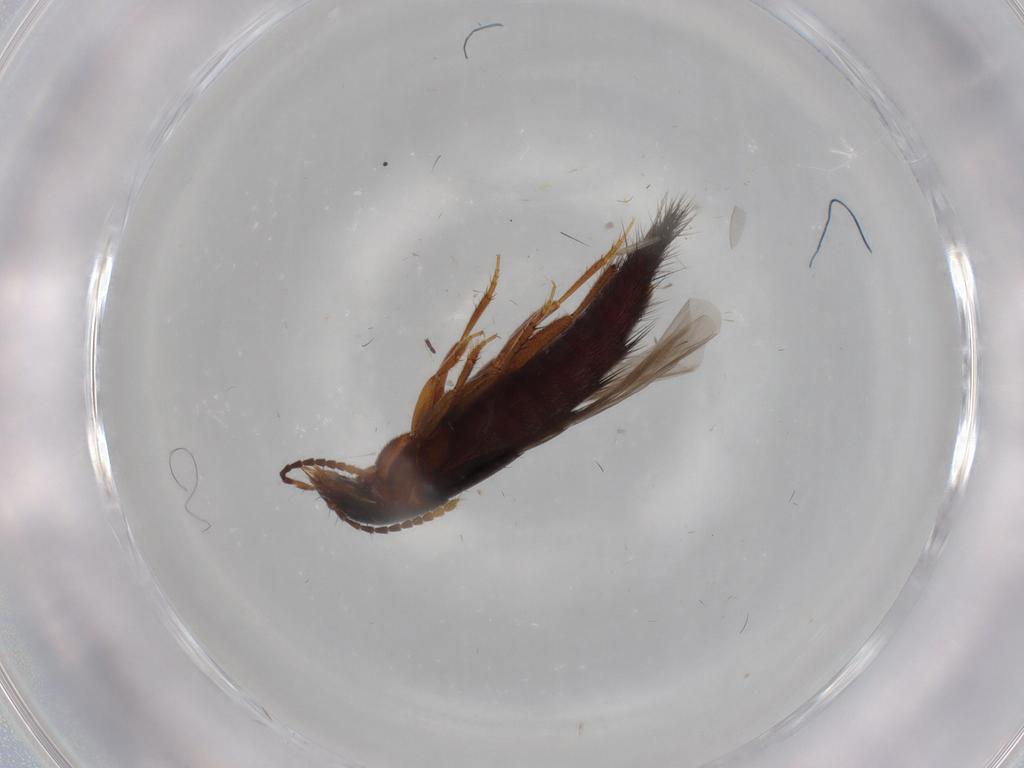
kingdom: Animalia
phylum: Arthropoda
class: Insecta
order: Coleoptera
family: Staphylinidae
